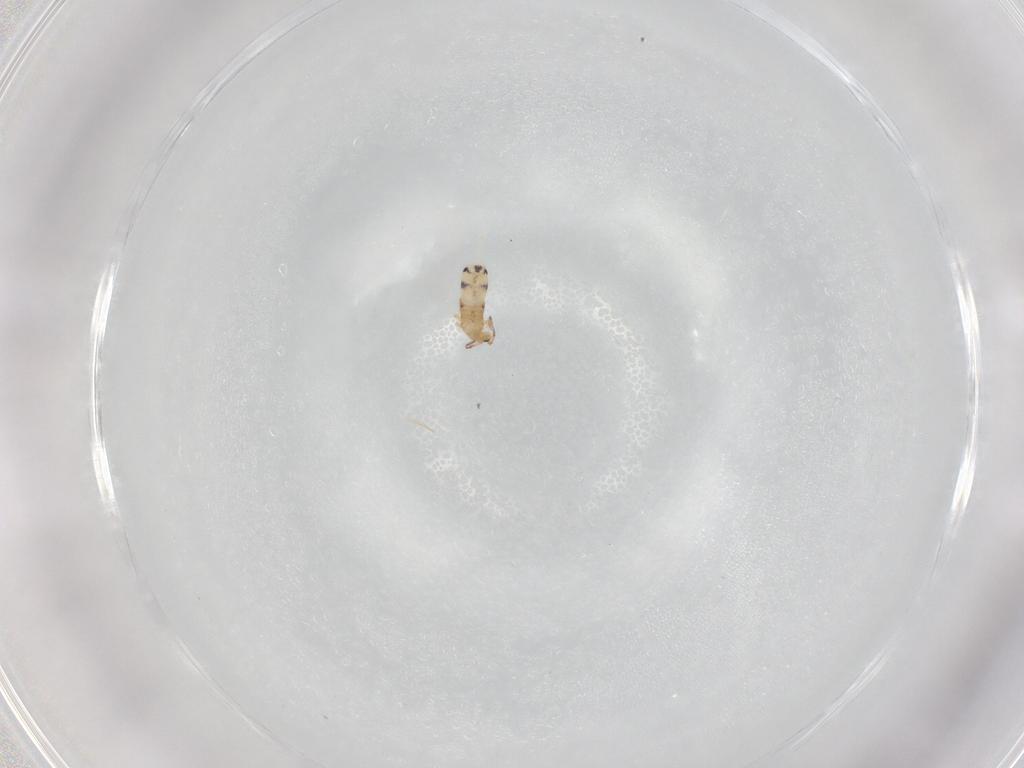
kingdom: Animalia
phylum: Arthropoda
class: Collembola
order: Entomobryomorpha
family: Entomobryidae
